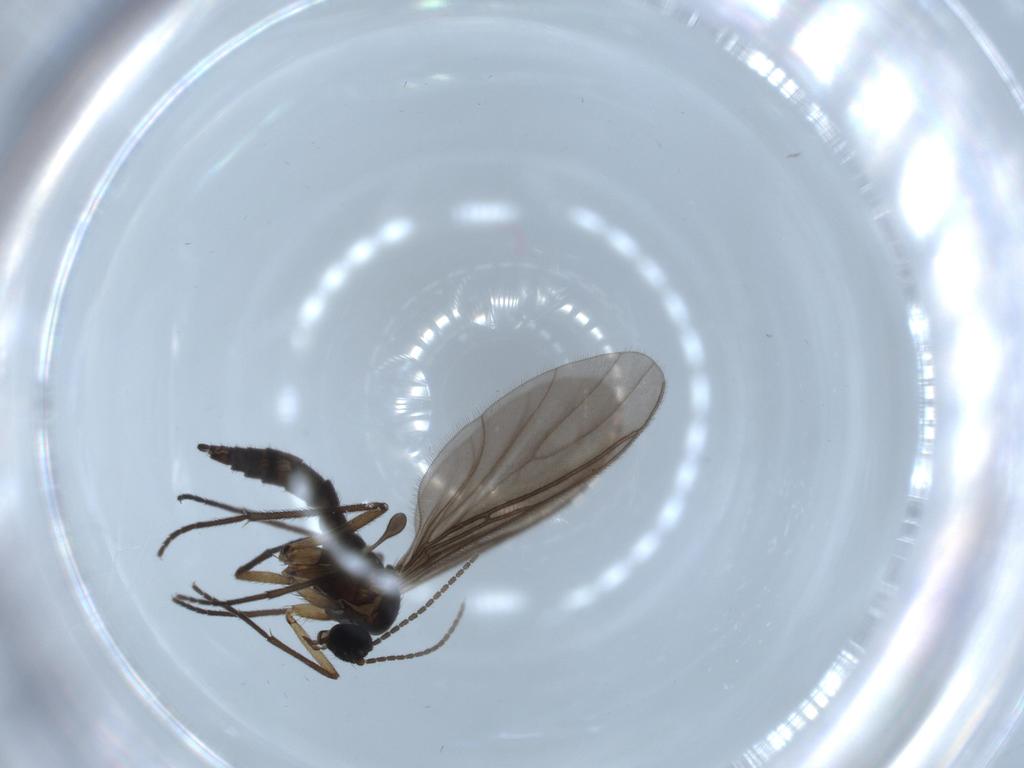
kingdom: Animalia
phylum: Arthropoda
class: Insecta
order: Diptera
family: Sciaridae
